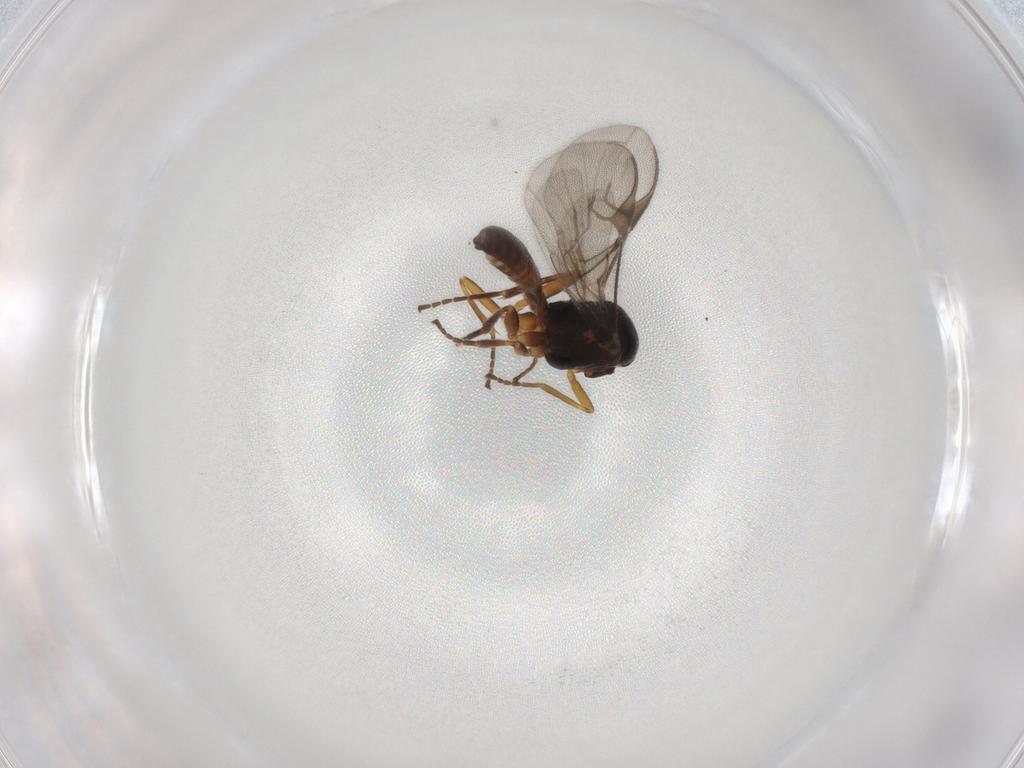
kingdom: Animalia
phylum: Arthropoda
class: Insecta
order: Hymenoptera
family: Braconidae
